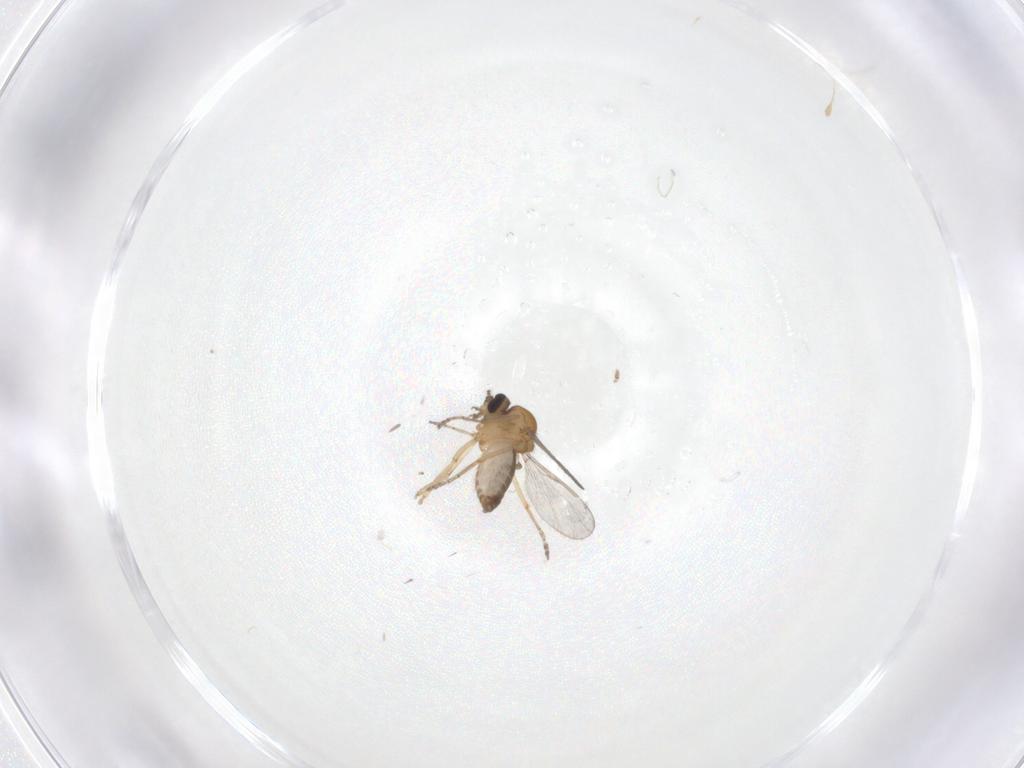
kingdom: Animalia
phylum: Arthropoda
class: Insecta
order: Diptera
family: Ceratopogonidae
